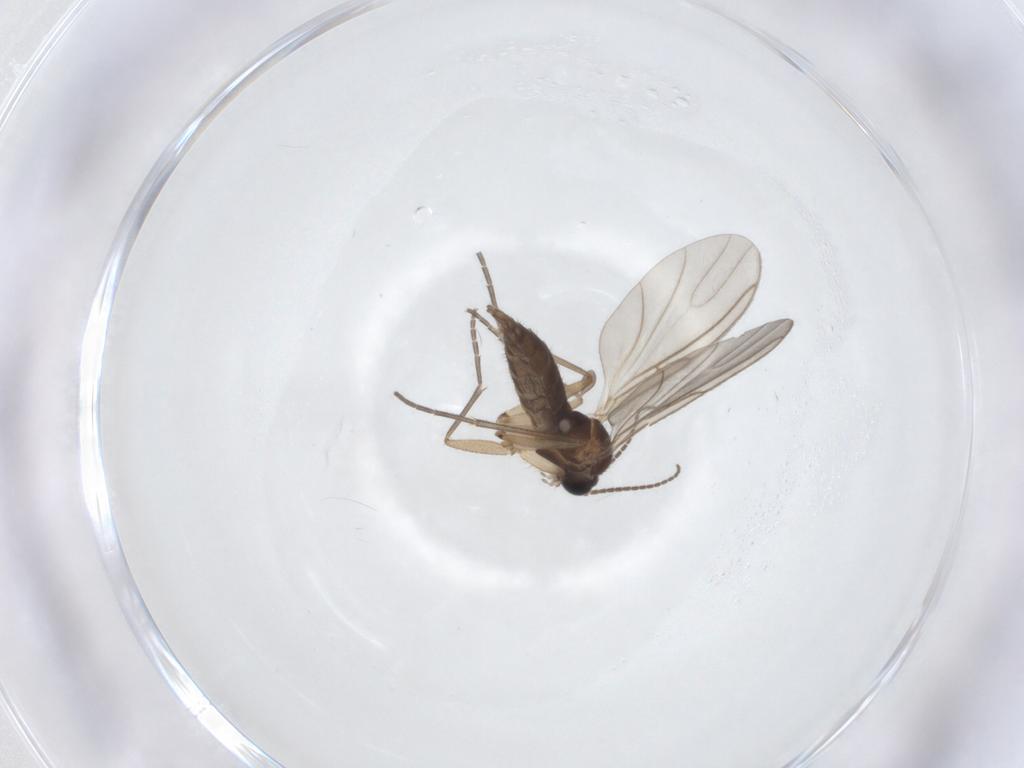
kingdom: Animalia
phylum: Arthropoda
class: Insecta
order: Diptera
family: Sciaridae
